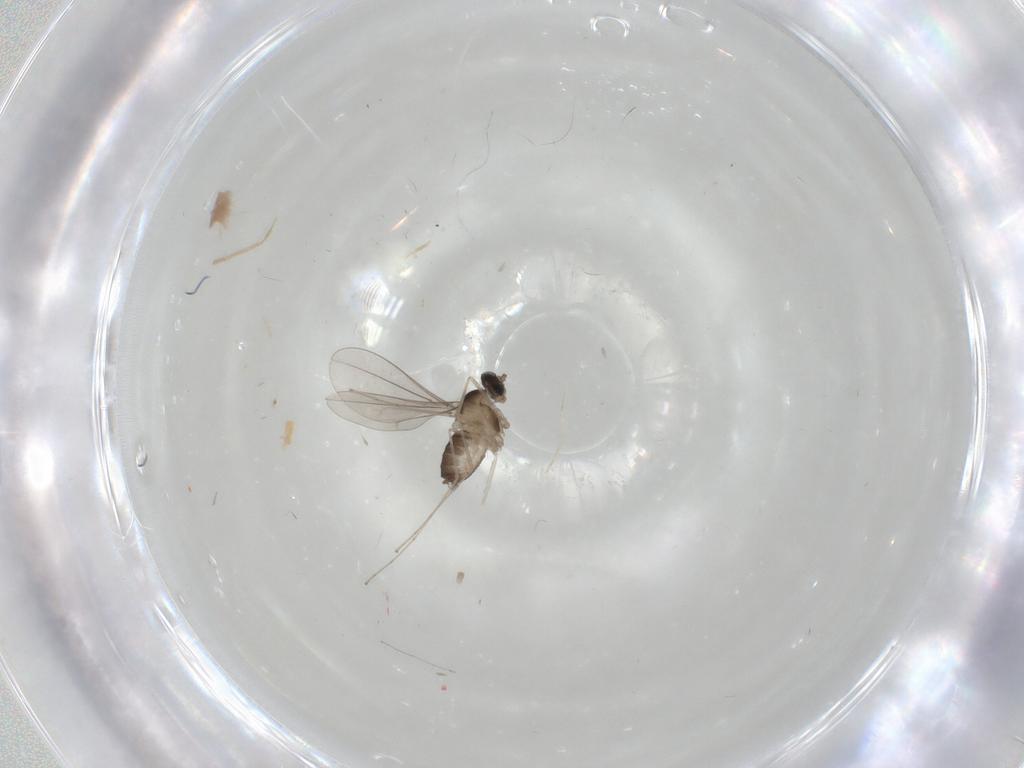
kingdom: Animalia
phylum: Arthropoda
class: Insecta
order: Diptera
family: Cecidomyiidae
